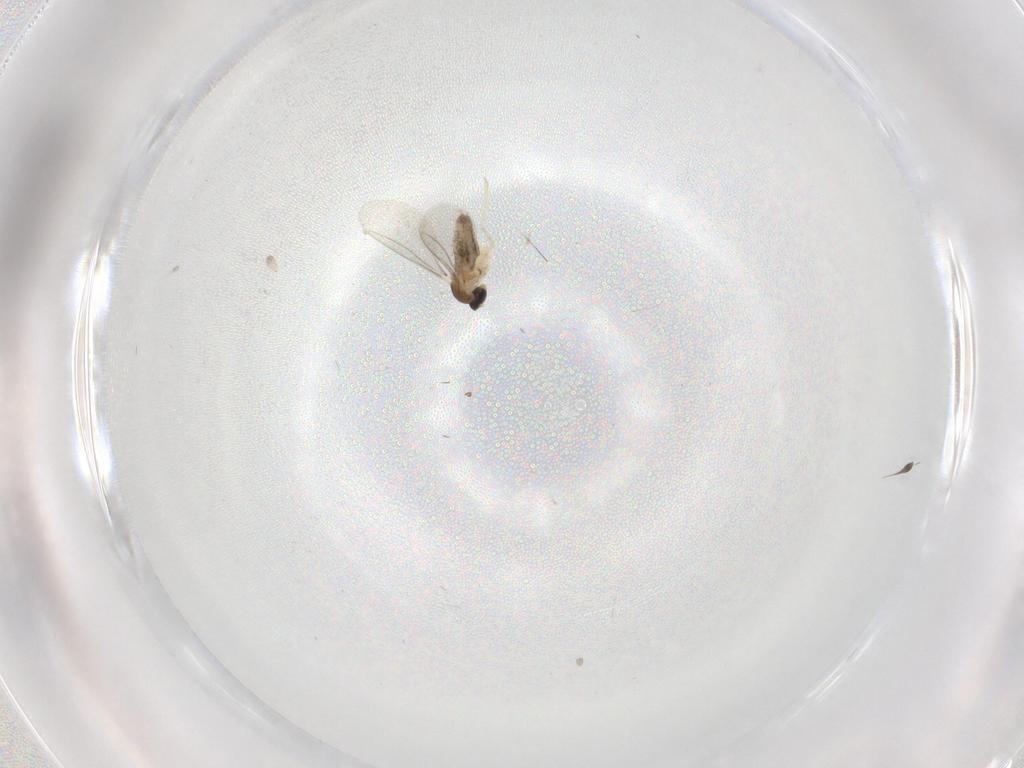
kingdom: Animalia
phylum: Arthropoda
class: Insecta
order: Diptera
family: Cecidomyiidae
